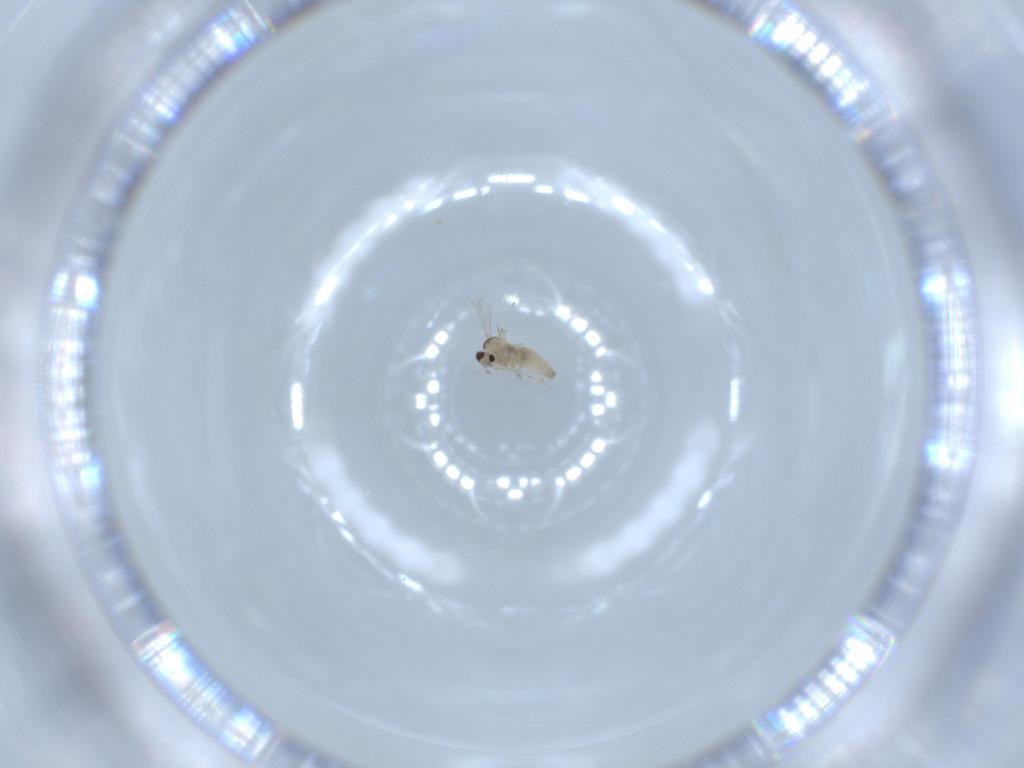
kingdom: Animalia
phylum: Arthropoda
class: Insecta
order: Diptera
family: Cecidomyiidae
